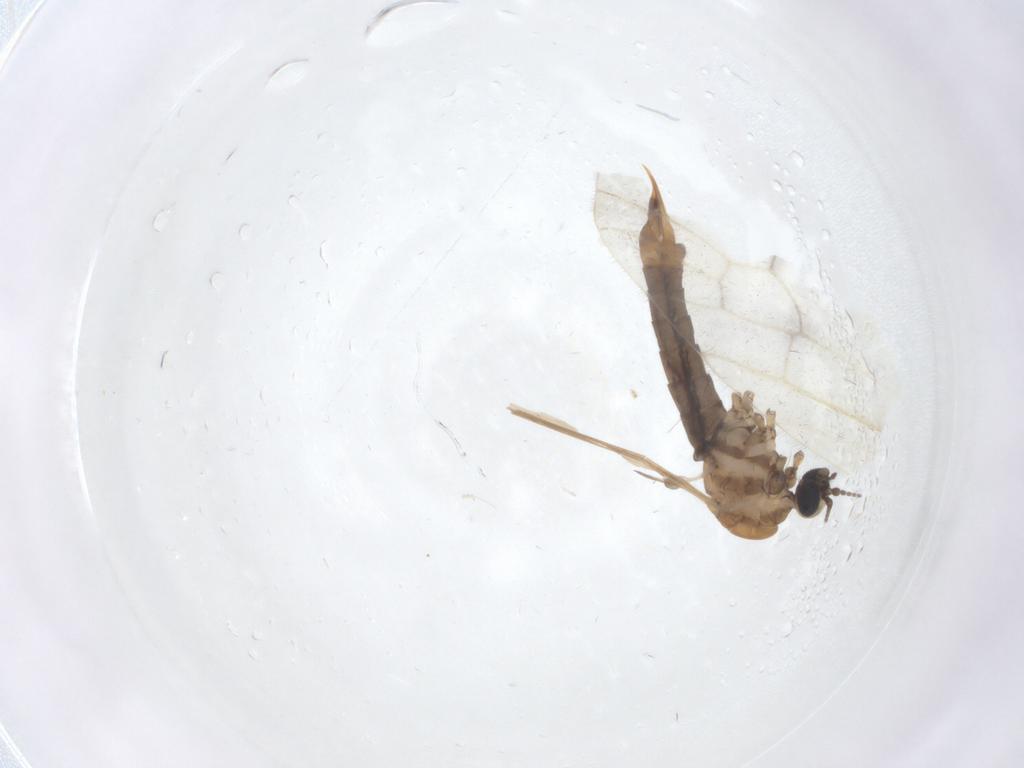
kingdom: Animalia
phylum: Arthropoda
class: Insecta
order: Diptera
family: Limoniidae
